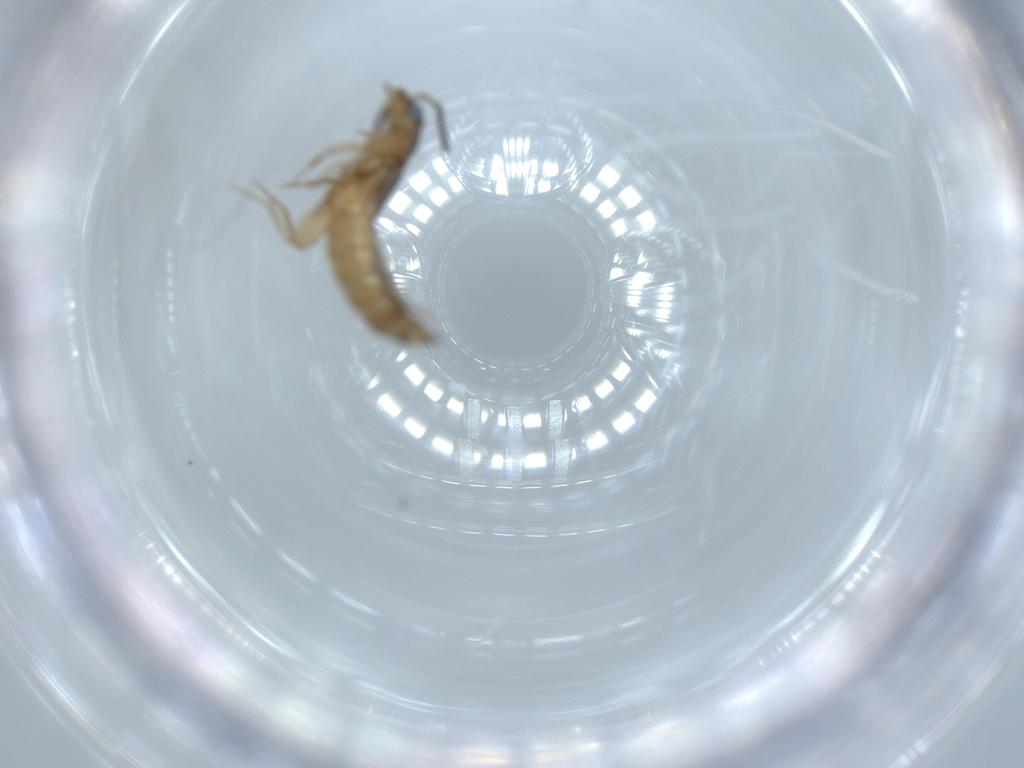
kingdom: Animalia
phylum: Arthropoda
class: Insecta
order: Coleoptera
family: Staphylinidae
